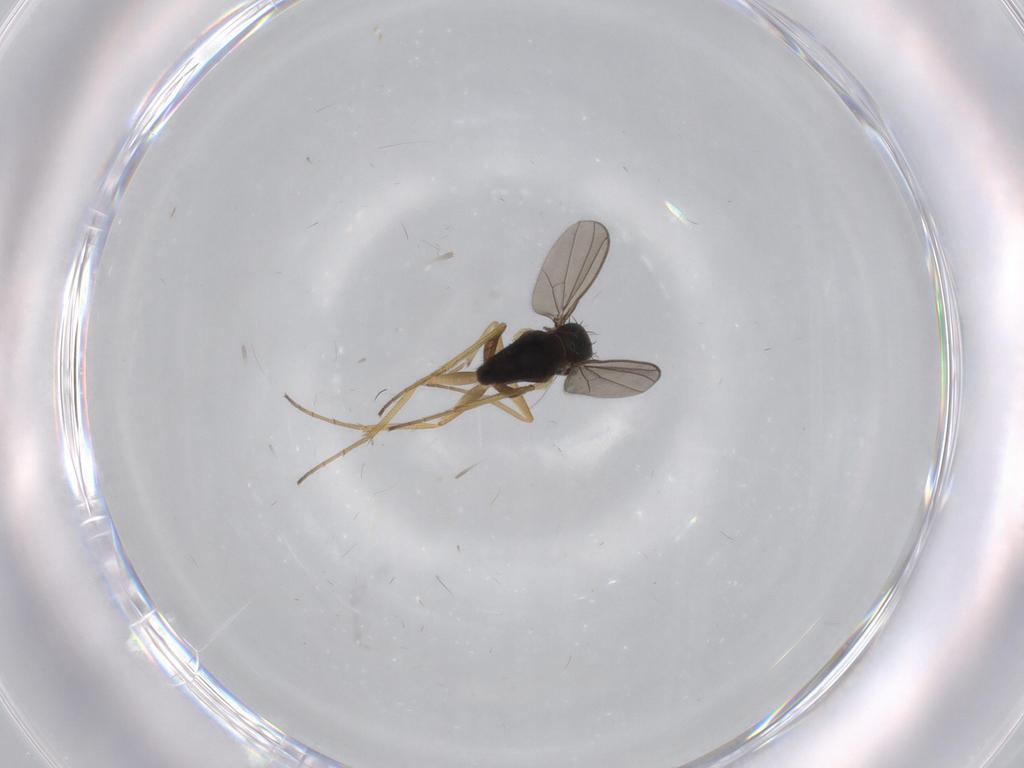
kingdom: Animalia
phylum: Arthropoda
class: Insecta
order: Diptera
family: Dolichopodidae
